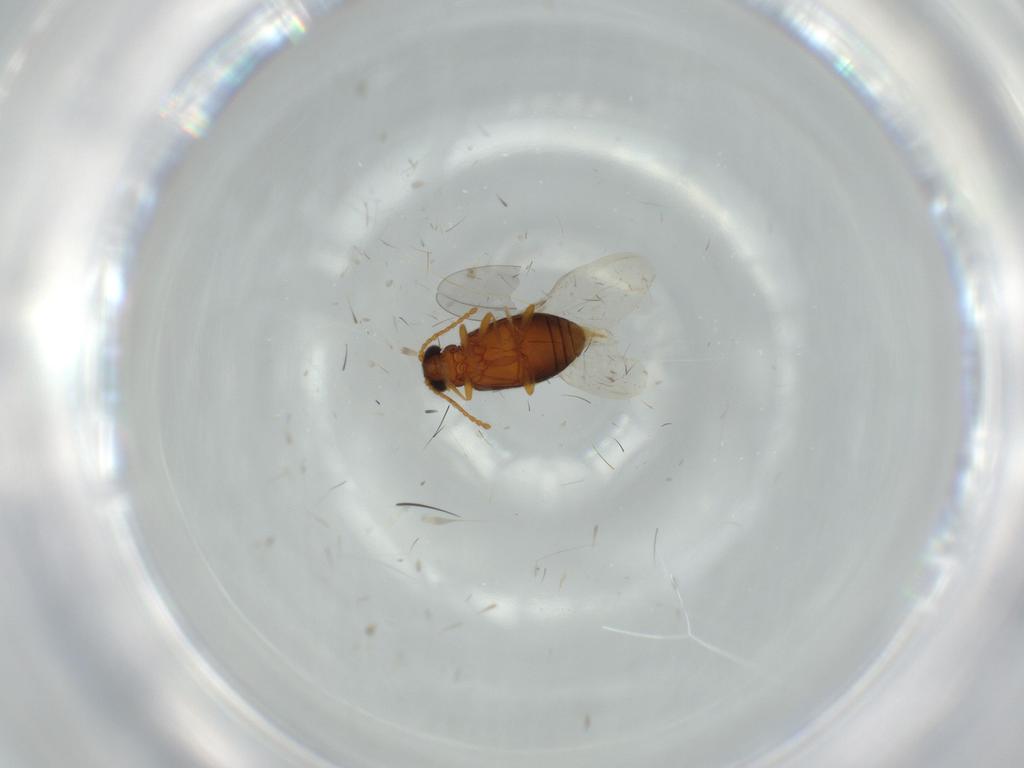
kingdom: Animalia
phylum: Arthropoda
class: Insecta
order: Coleoptera
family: Aderidae
